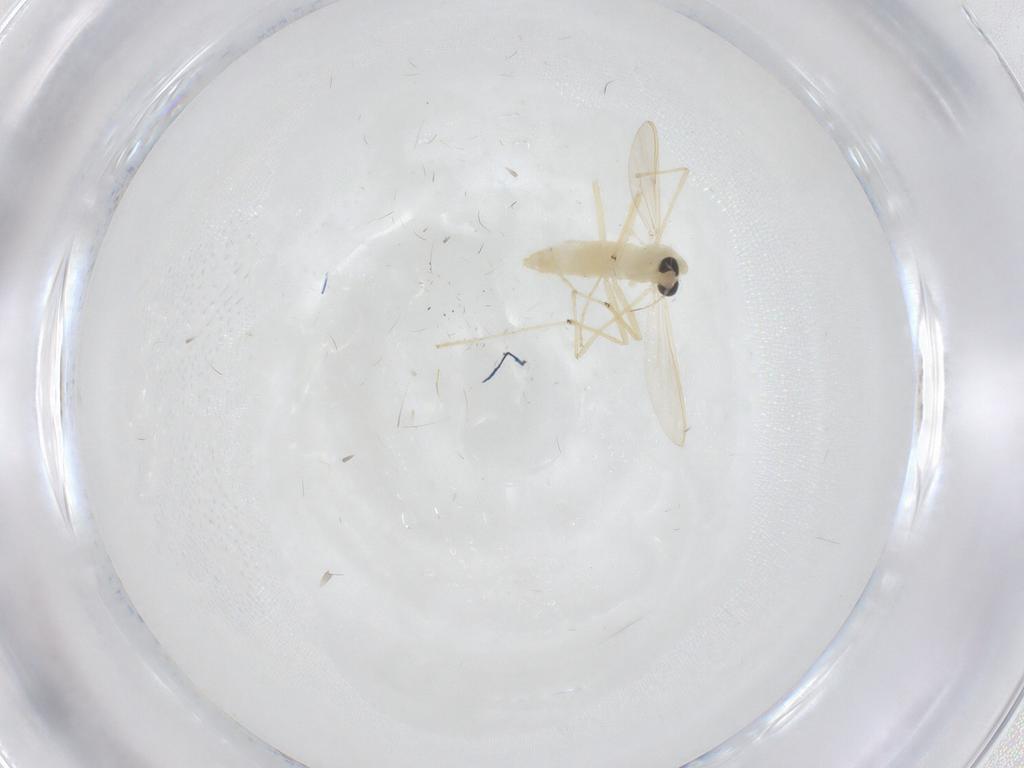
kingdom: Animalia
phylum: Arthropoda
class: Insecta
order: Diptera
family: Chironomidae
